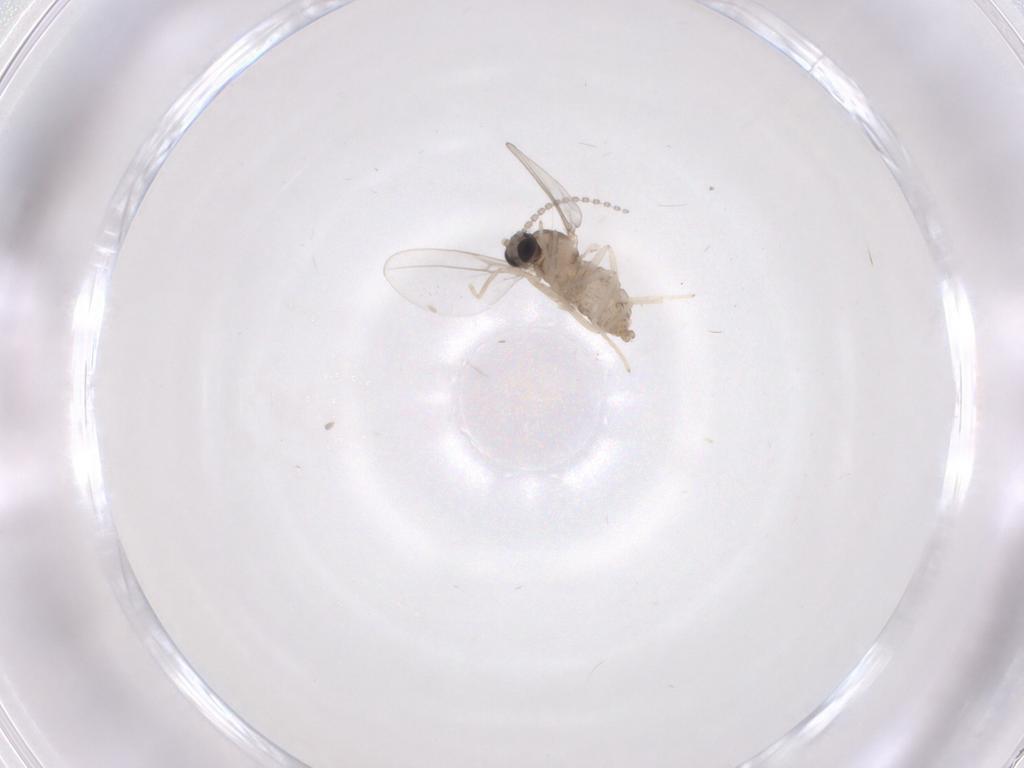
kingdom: Animalia
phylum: Arthropoda
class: Insecta
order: Diptera
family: Cecidomyiidae
